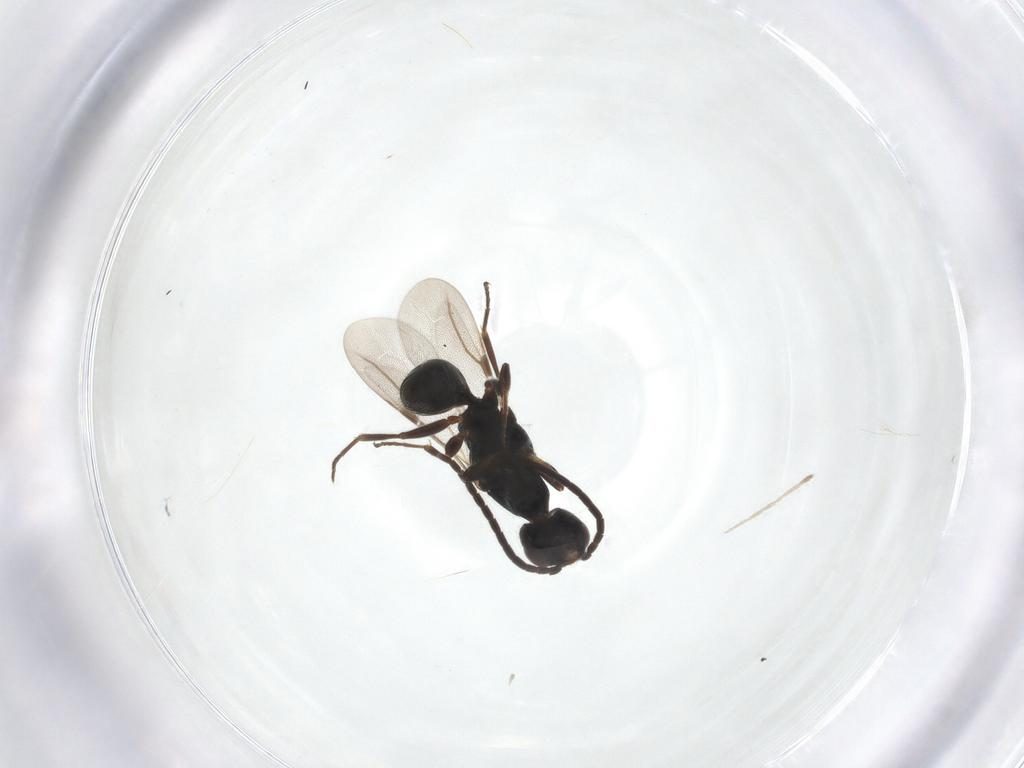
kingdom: Animalia
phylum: Arthropoda
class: Insecta
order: Hymenoptera
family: Bethylidae
